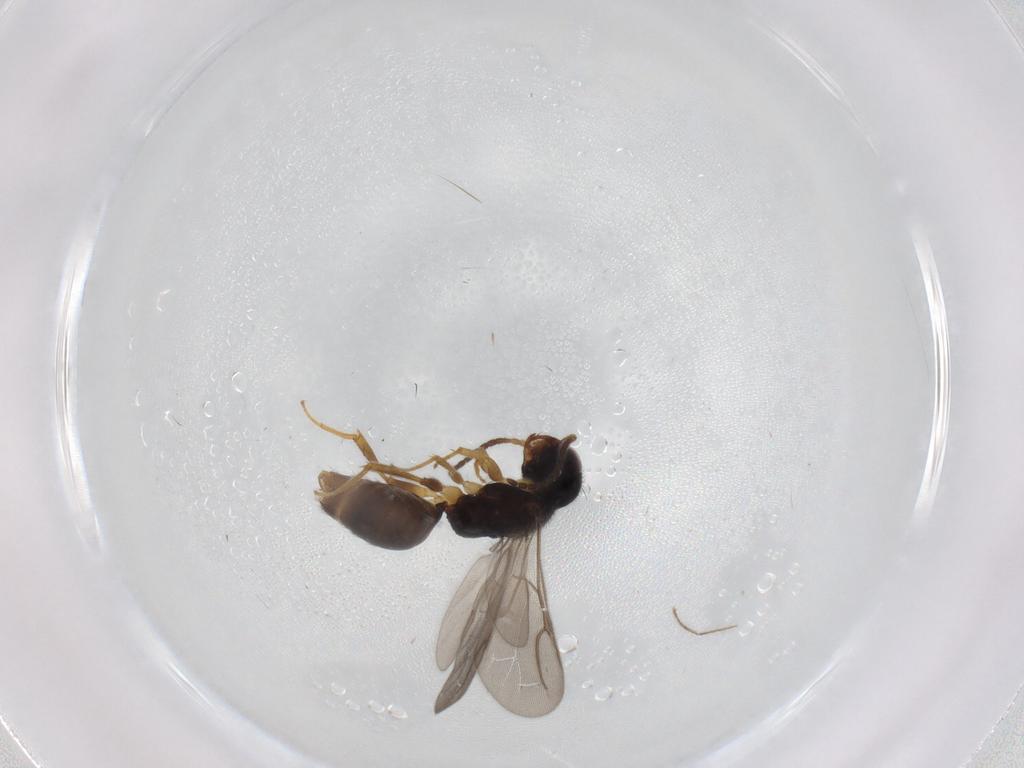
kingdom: Animalia
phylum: Arthropoda
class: Insecta
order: Hymenoptera
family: Bethylidae
